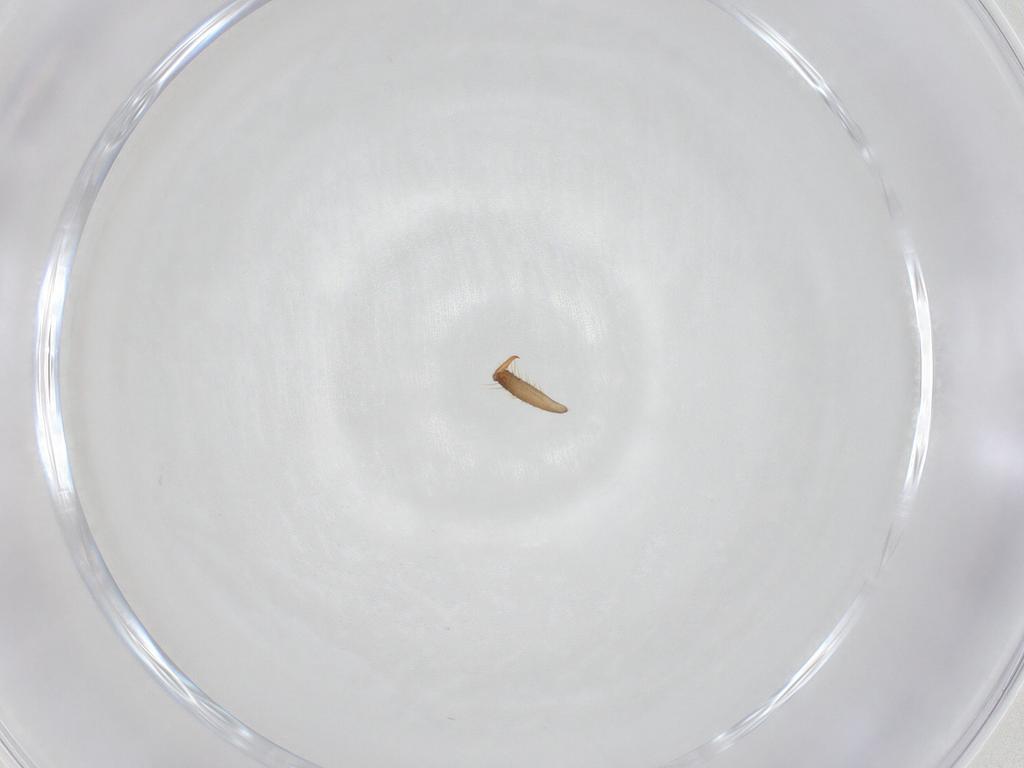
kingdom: Animalia
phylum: Arthropoda
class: Insecta
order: Dermaptera
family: Forficulidae
